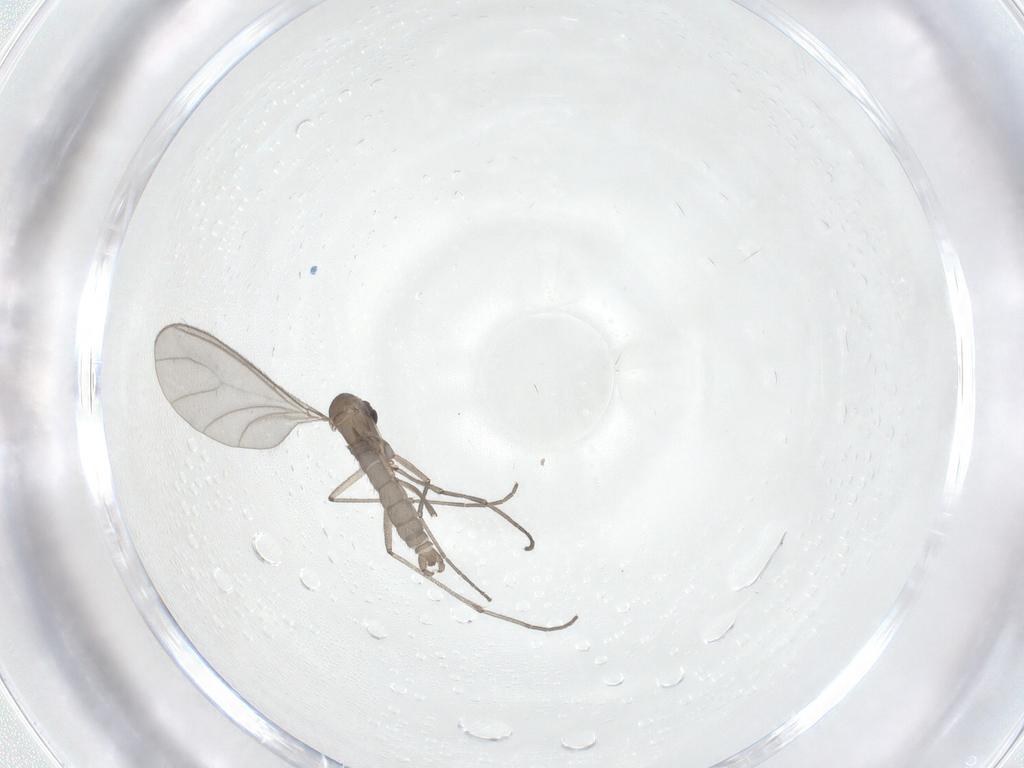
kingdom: Animalia
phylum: Arthropoda
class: Insecta
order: Diptera
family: Sciaridae
